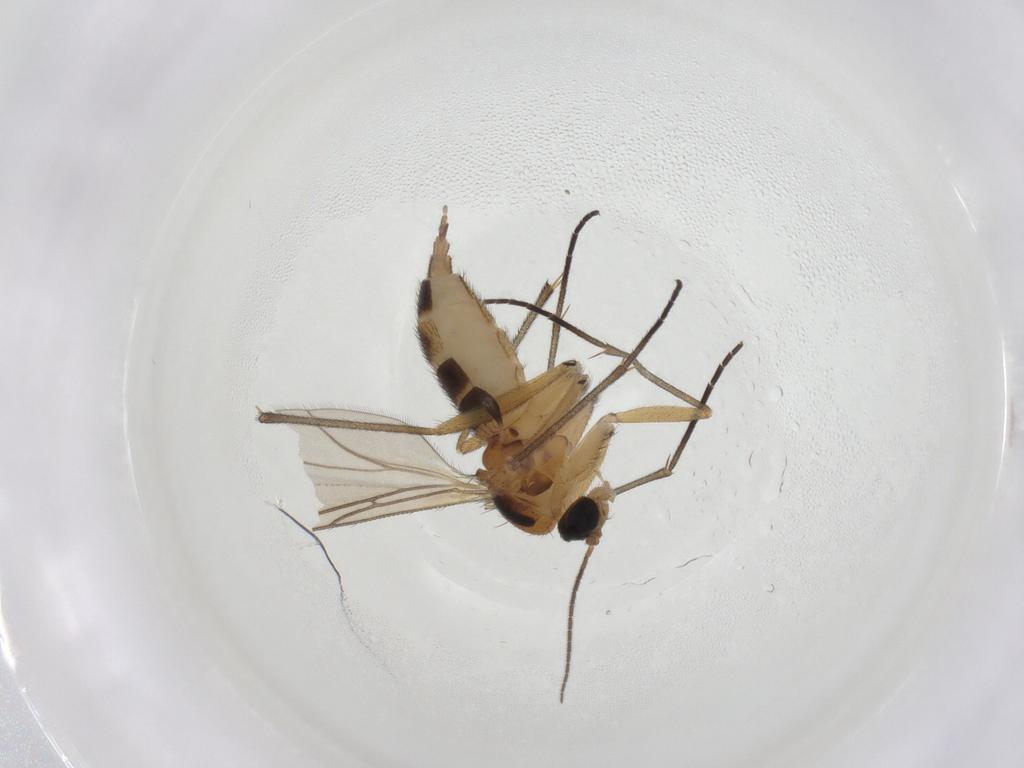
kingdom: Animalia
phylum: Arthropoda
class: Insecta
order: Diptera
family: Sciaridae
